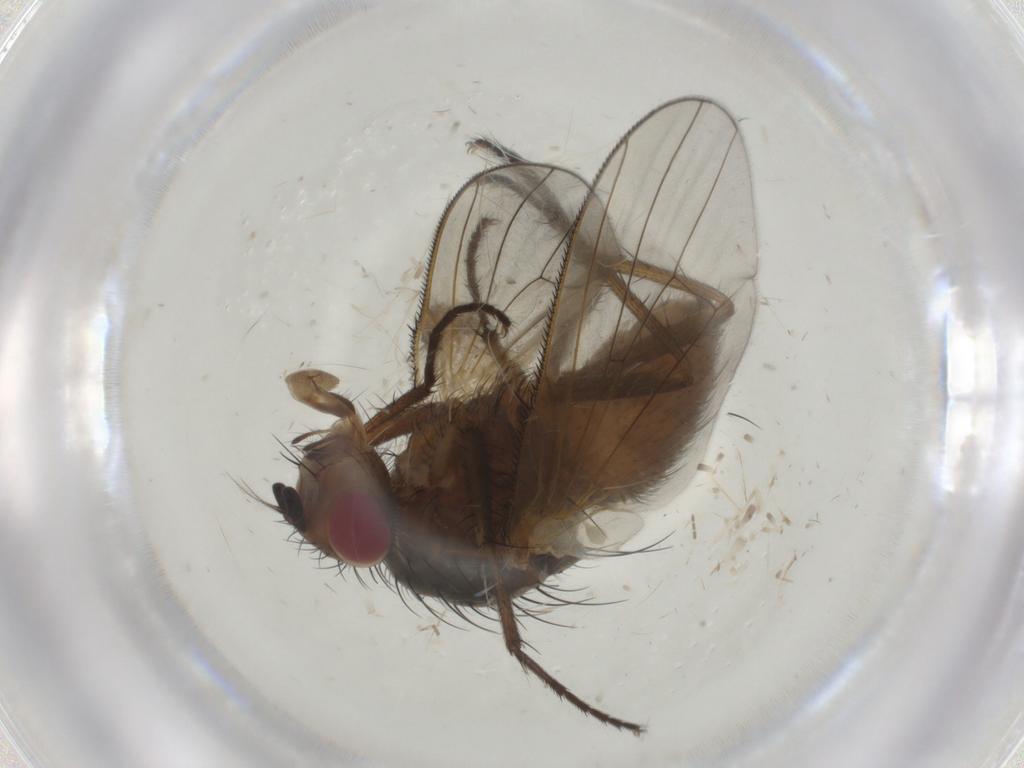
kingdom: Animalia
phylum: Arthropoda
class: Insecta
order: Diptera
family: Anthomyiidae
